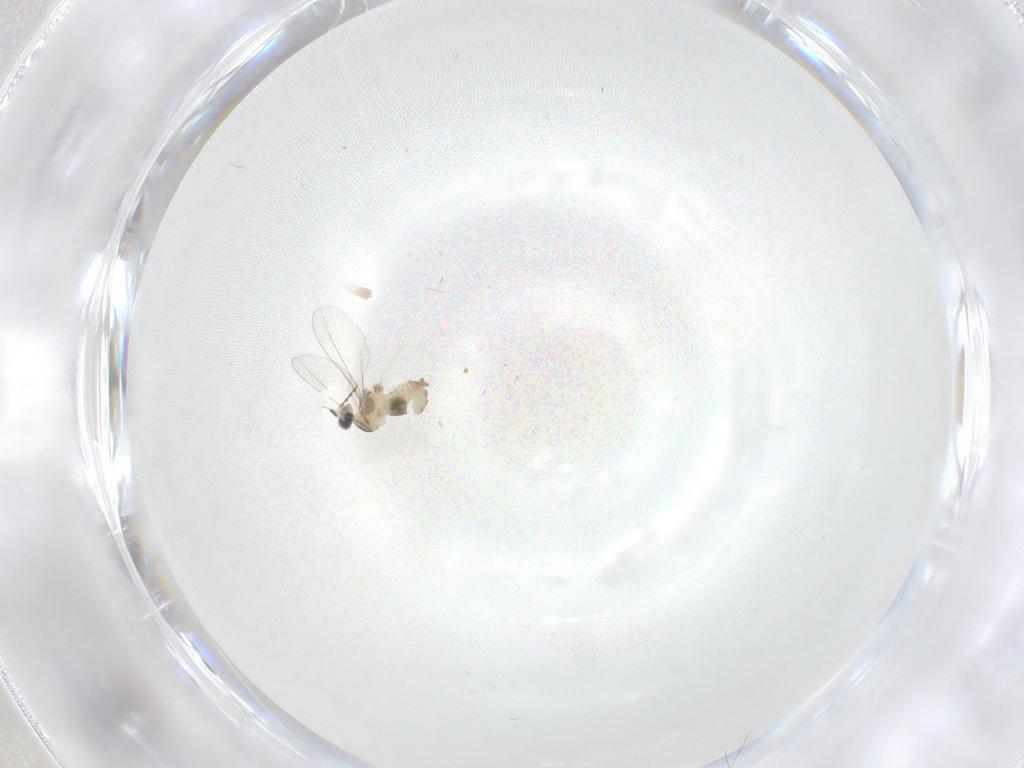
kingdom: Animalia
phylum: Arthropoda
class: Insecta
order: Diptera
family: Cecidomyiidae
